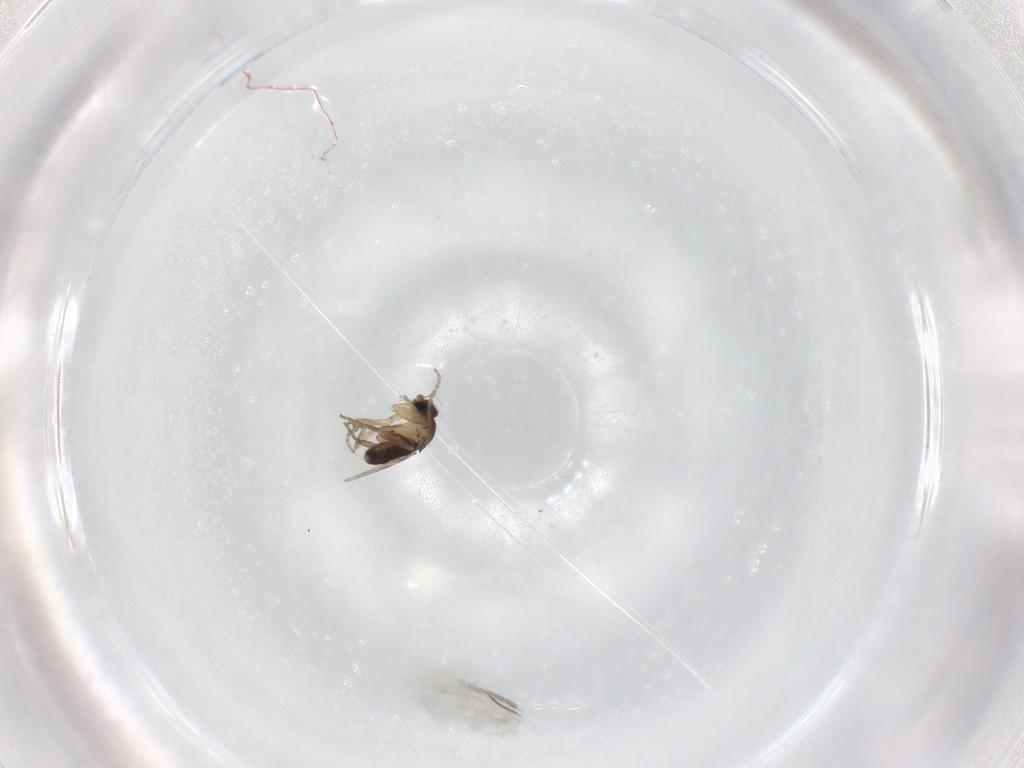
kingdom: Animalia
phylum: Arthropoda
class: Insecta
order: Diptera
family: Phoridae
